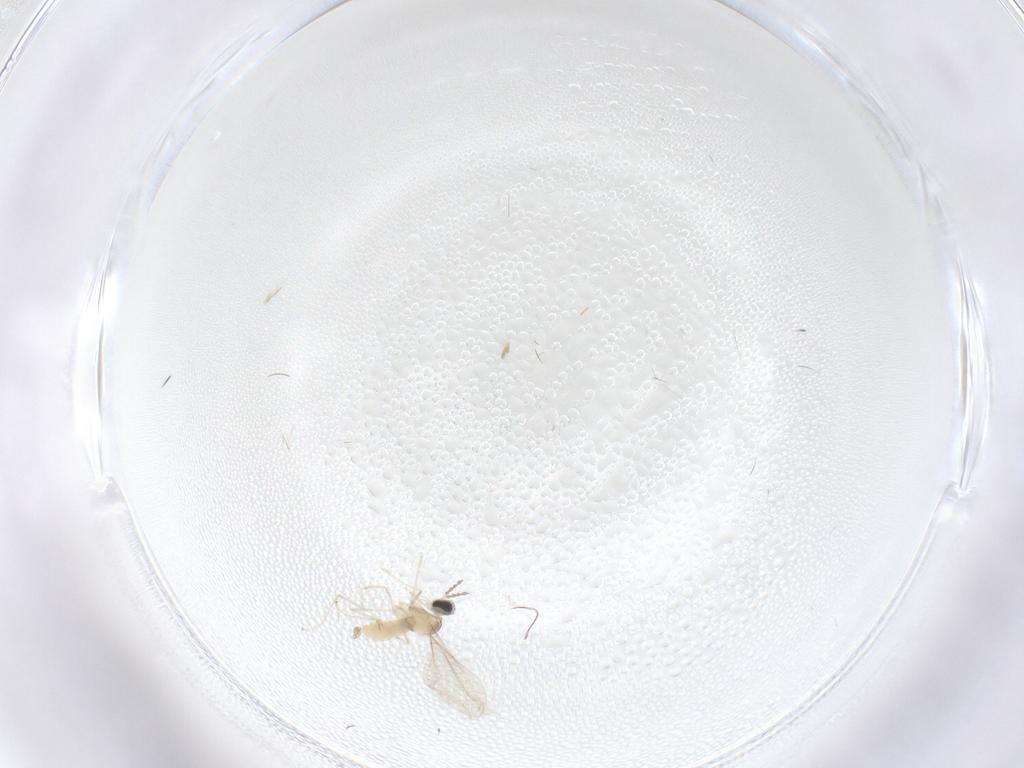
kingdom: Animalia
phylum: Arthropoda
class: Insecta
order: Diptera
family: Cecidomyiidae
